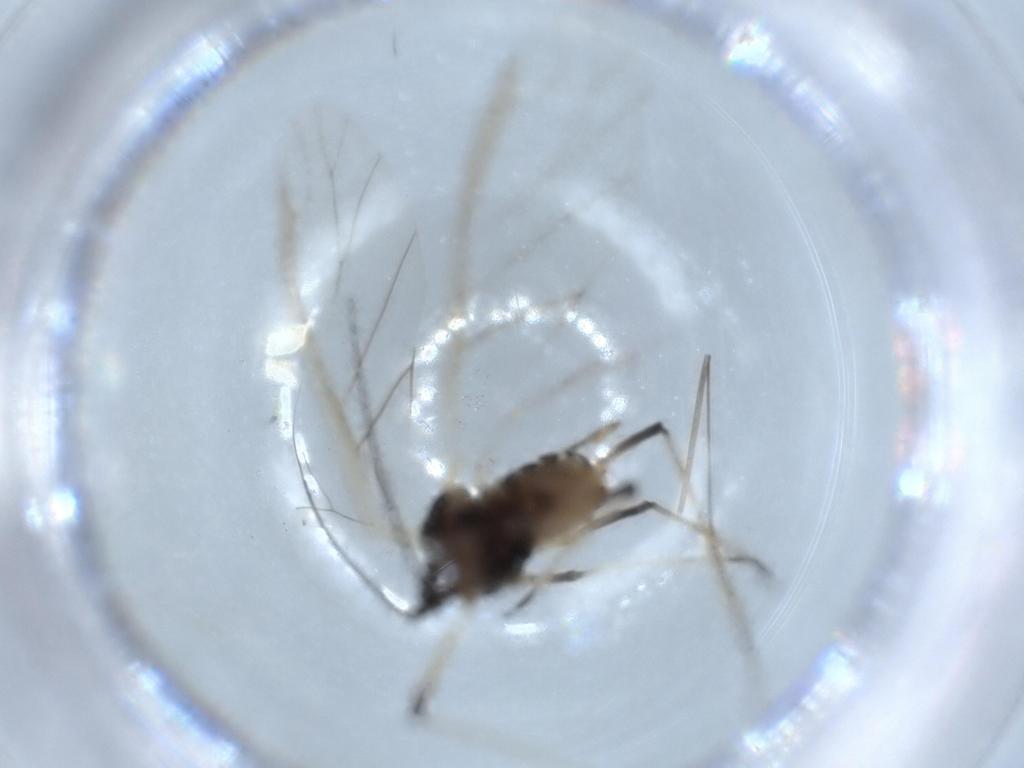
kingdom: Animalia
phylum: Arthropoda
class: Insecta
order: Hemiptera
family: Aphididae
